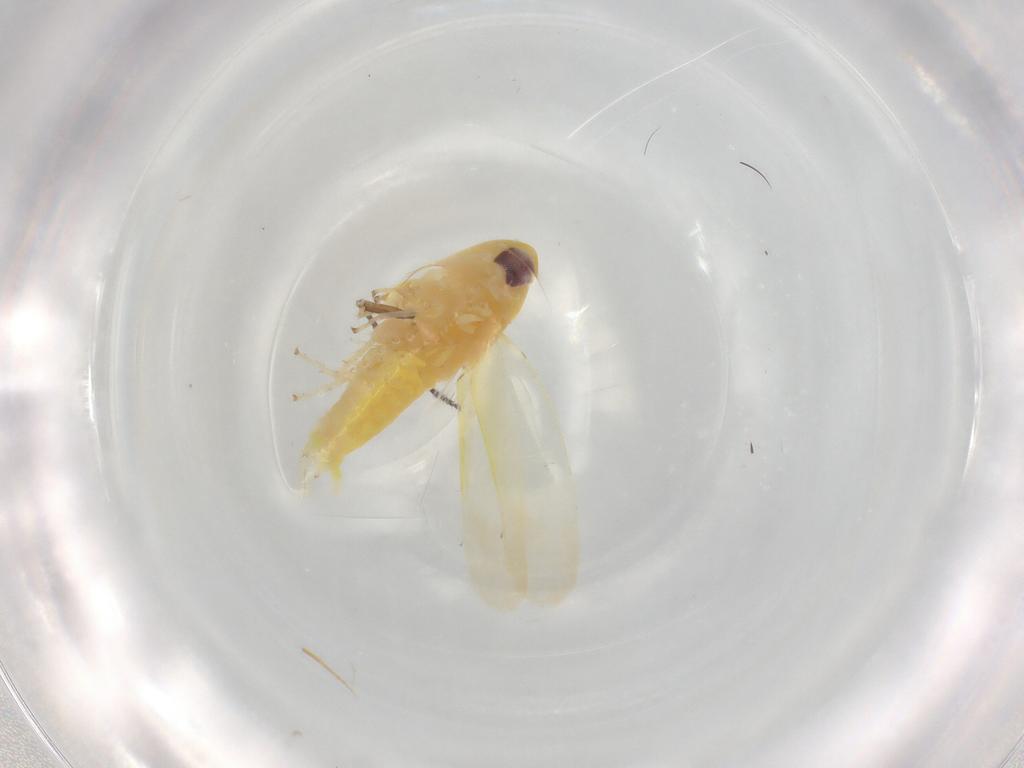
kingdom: Animalia
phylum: Arthropoda
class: Insecta
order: Hemiptera
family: Cicadellidae
